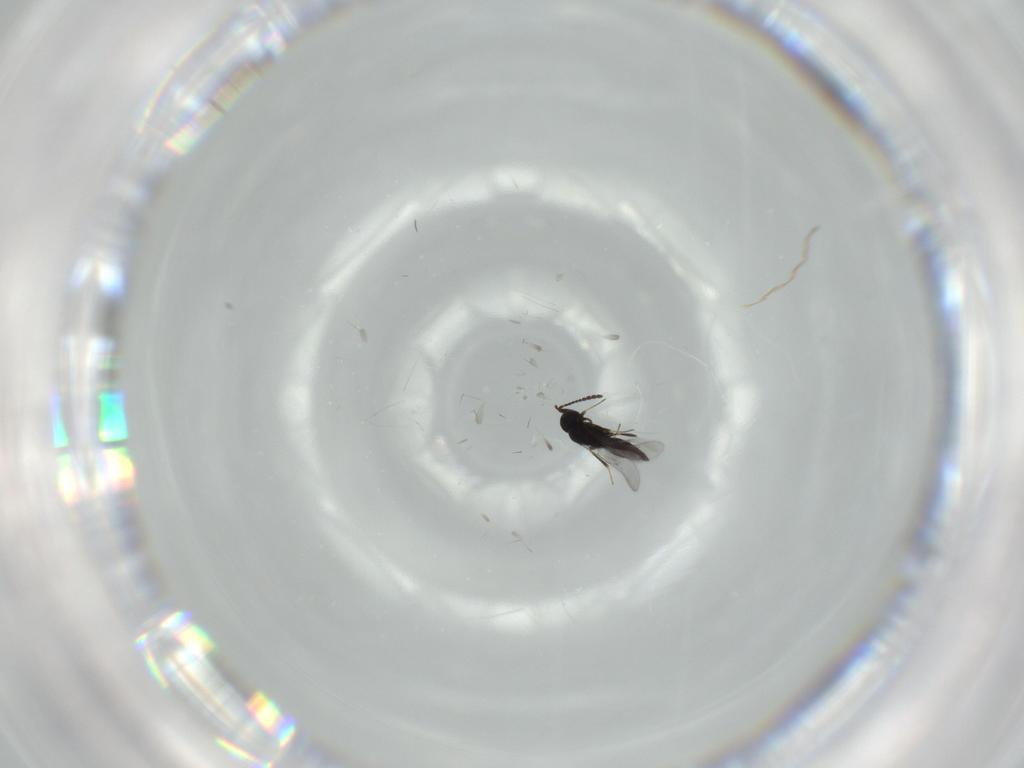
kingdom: Animalia
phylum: Arthropoda
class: Insecta
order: Hymenoptera
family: Scelionidae
